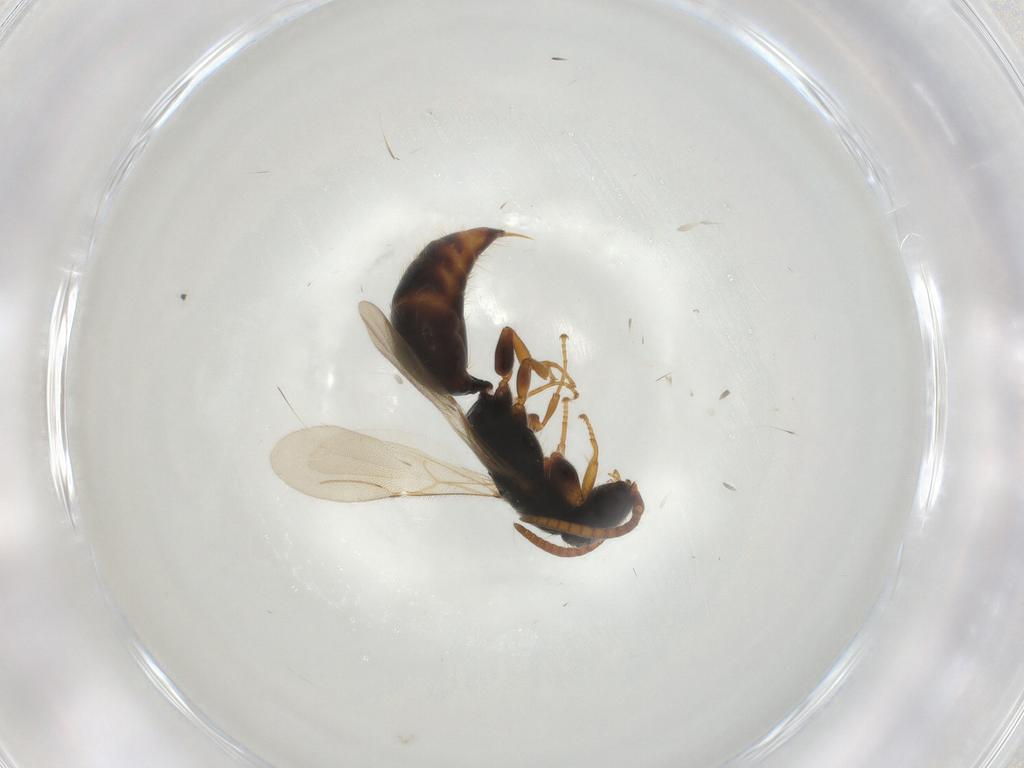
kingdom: Animalia
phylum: Arthropoda
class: Insecta
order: Hymenoptera
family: Bethylidae
